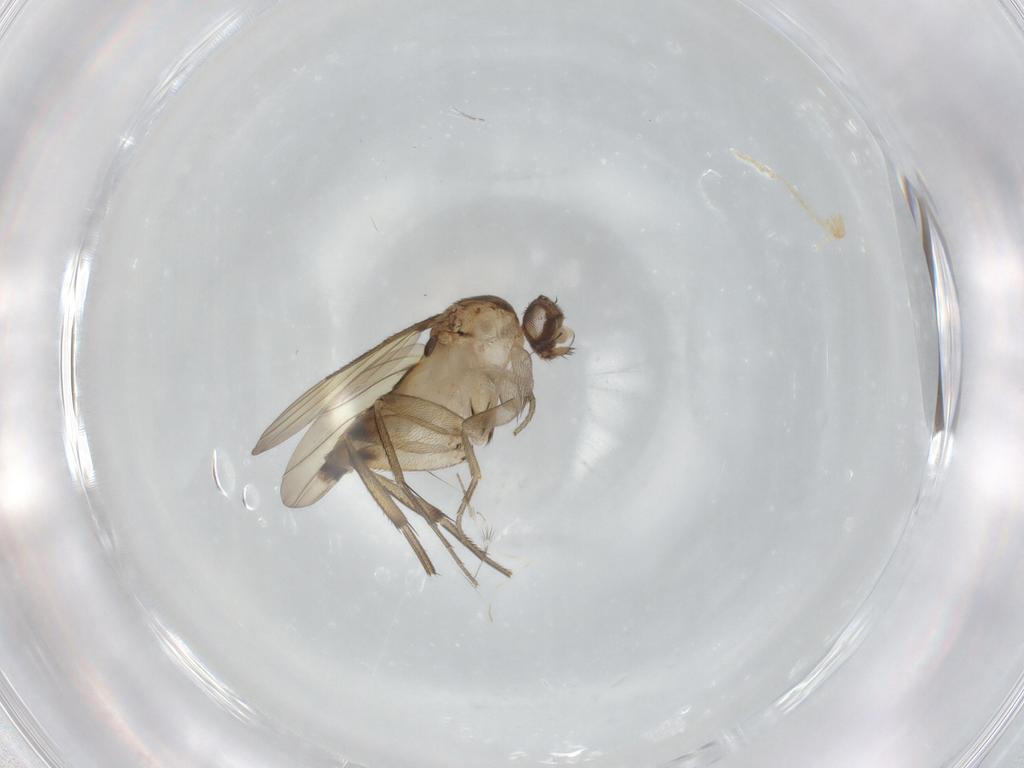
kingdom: Animalia
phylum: Arthropoda
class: Insecta
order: Diptera
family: Phoridae
